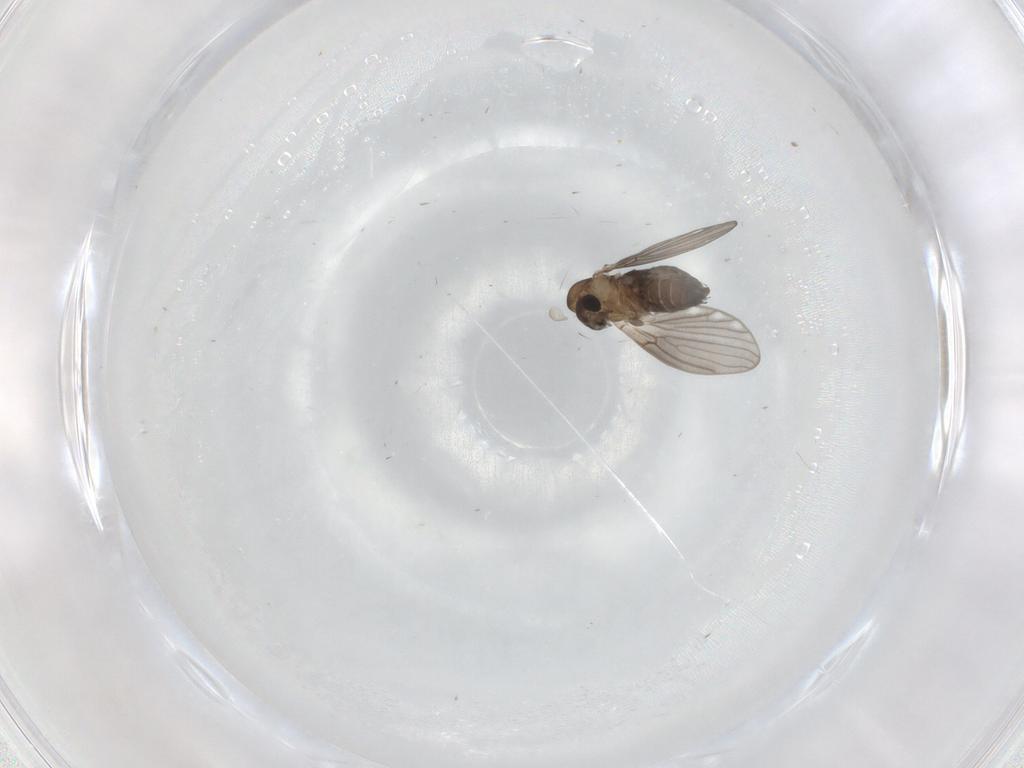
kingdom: Animalia
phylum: Arthropoda
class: Insecta
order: Diptera
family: Psychodidae
